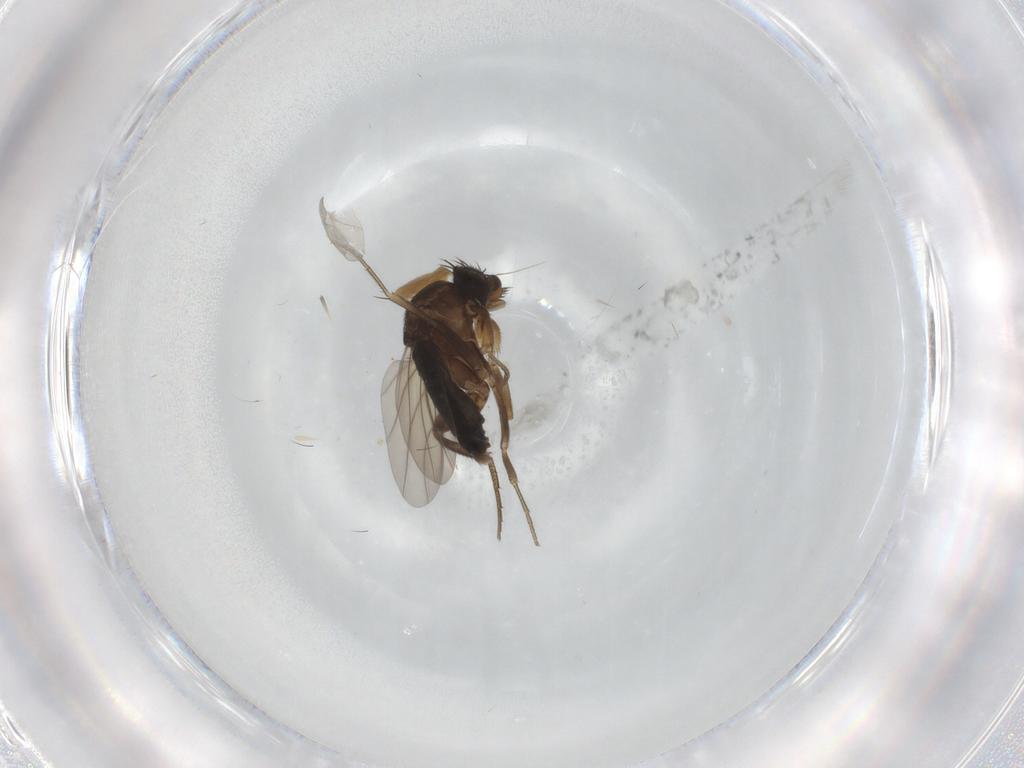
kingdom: Animalia
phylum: Arthropoda
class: Insecta
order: Diptera
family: Phoridae
